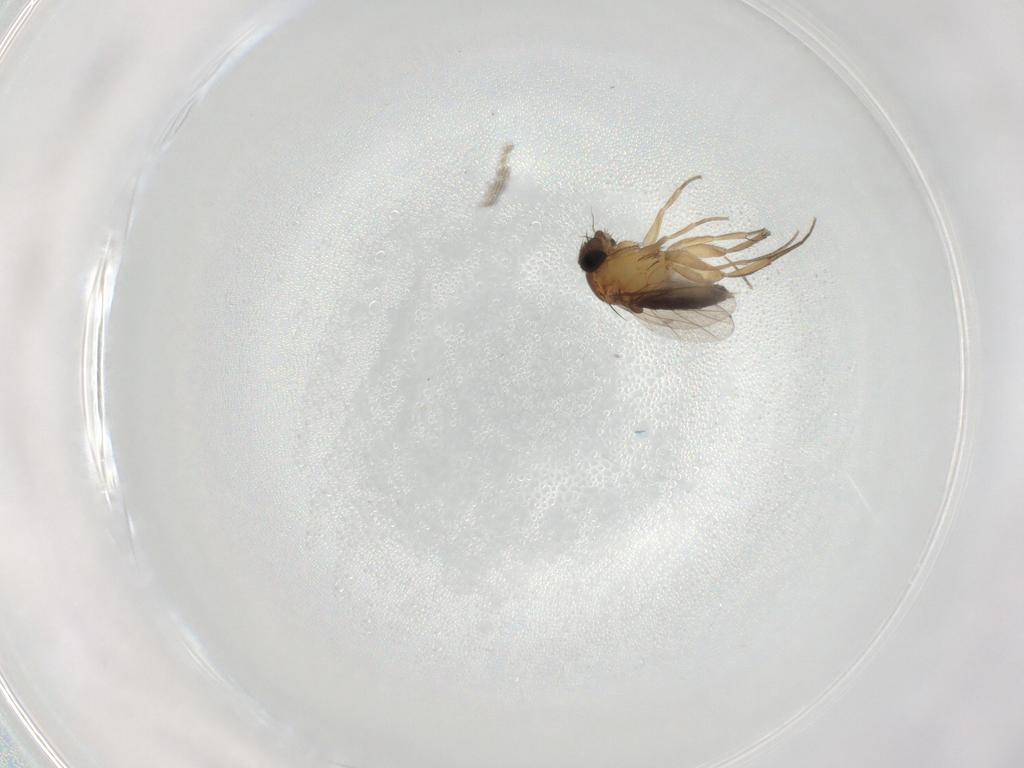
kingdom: Animalia
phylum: Arthropoda
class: Insecta
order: Diptera
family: Phoridae
